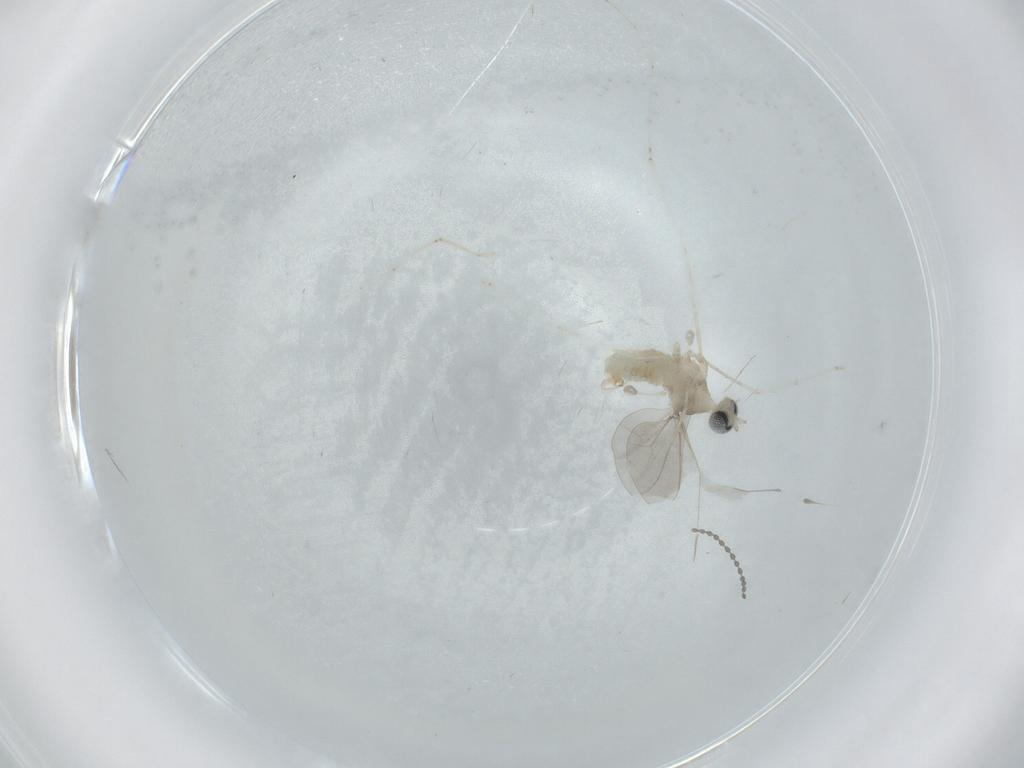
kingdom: Animalia
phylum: Arthropoda
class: Insecta
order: Diptera
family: Cecidomyiidae
